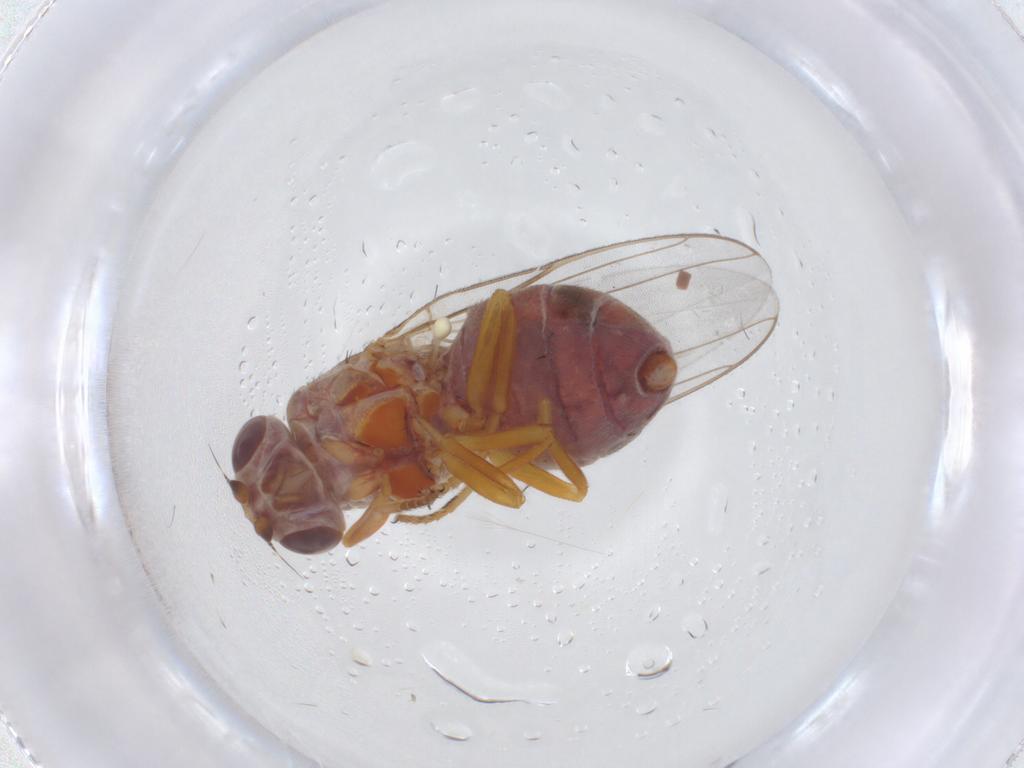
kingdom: Animalia
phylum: Arthropoda
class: Insecta
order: Diptera
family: Chloropidae
